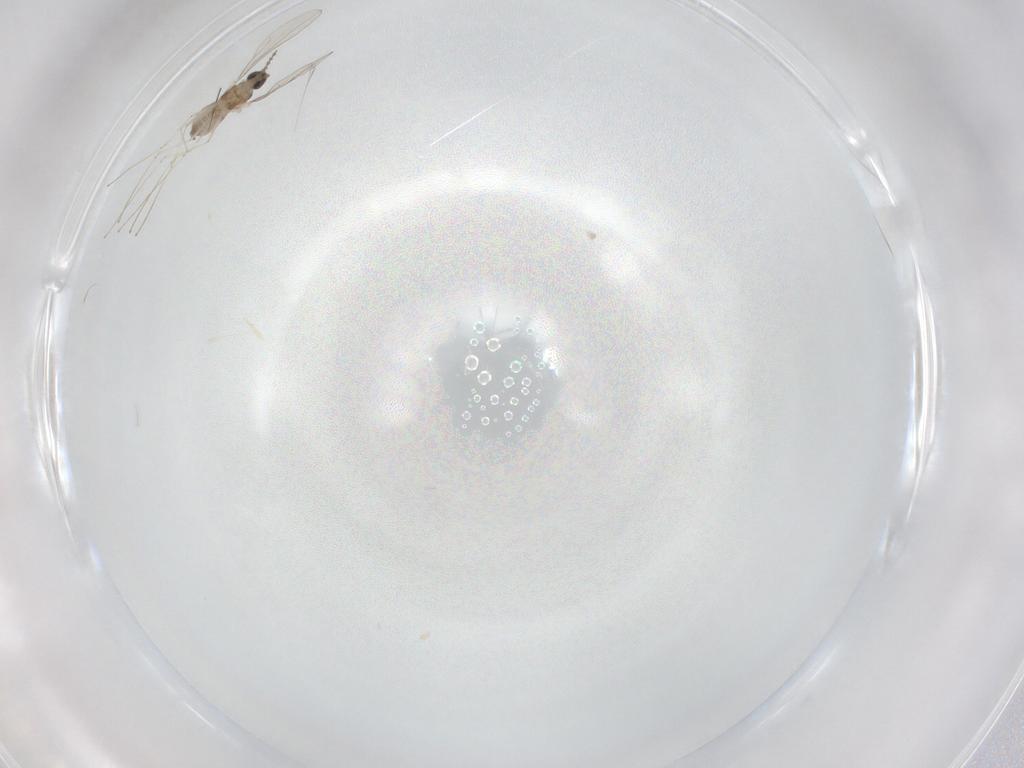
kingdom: Animalia
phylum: Arthropoda
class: Insecta
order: Diptera
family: Cecidomyiidae
